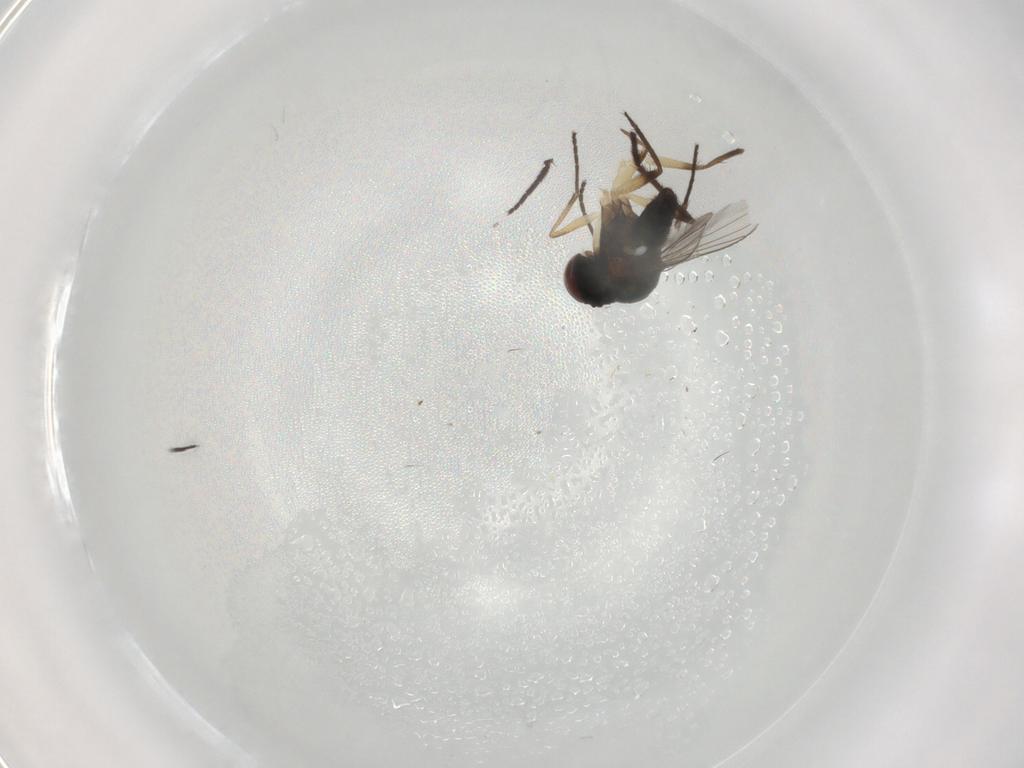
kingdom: Animalia
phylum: Arthropoda
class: Insecta
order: Diptera
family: Dolichopodidae
